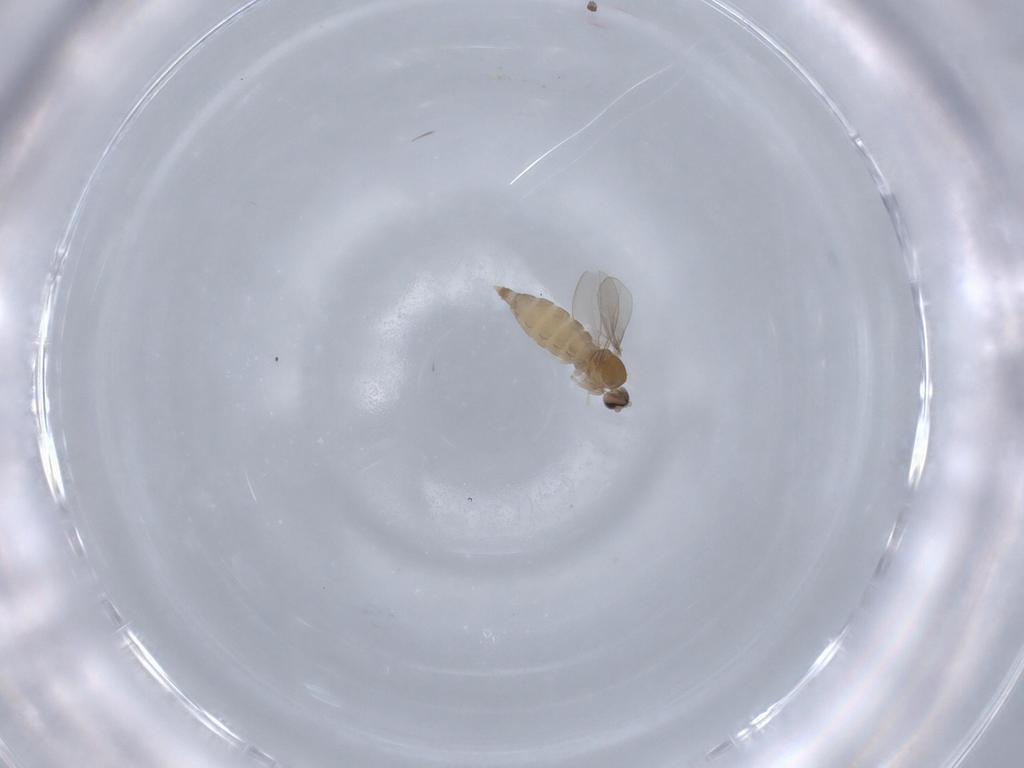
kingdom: Animalia
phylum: Arthropoda
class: Insecta
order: Diptera
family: Cecidomyiidae
